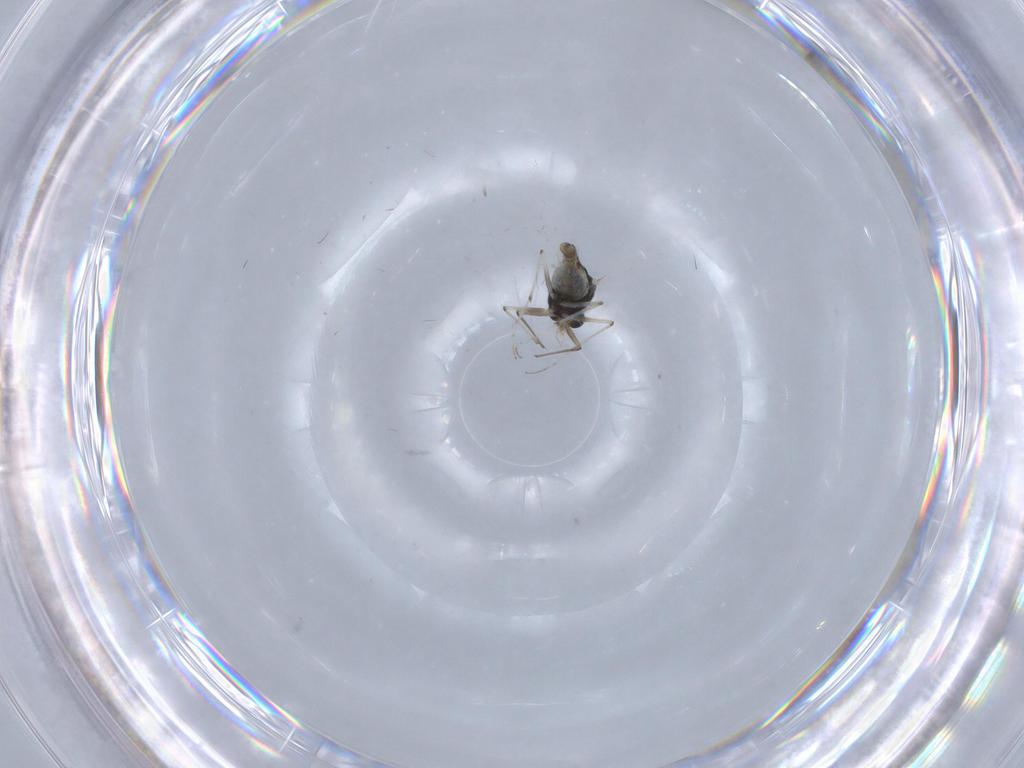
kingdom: Animalia
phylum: Arthropoda
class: Insecta
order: Diptera
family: Chironomidae
